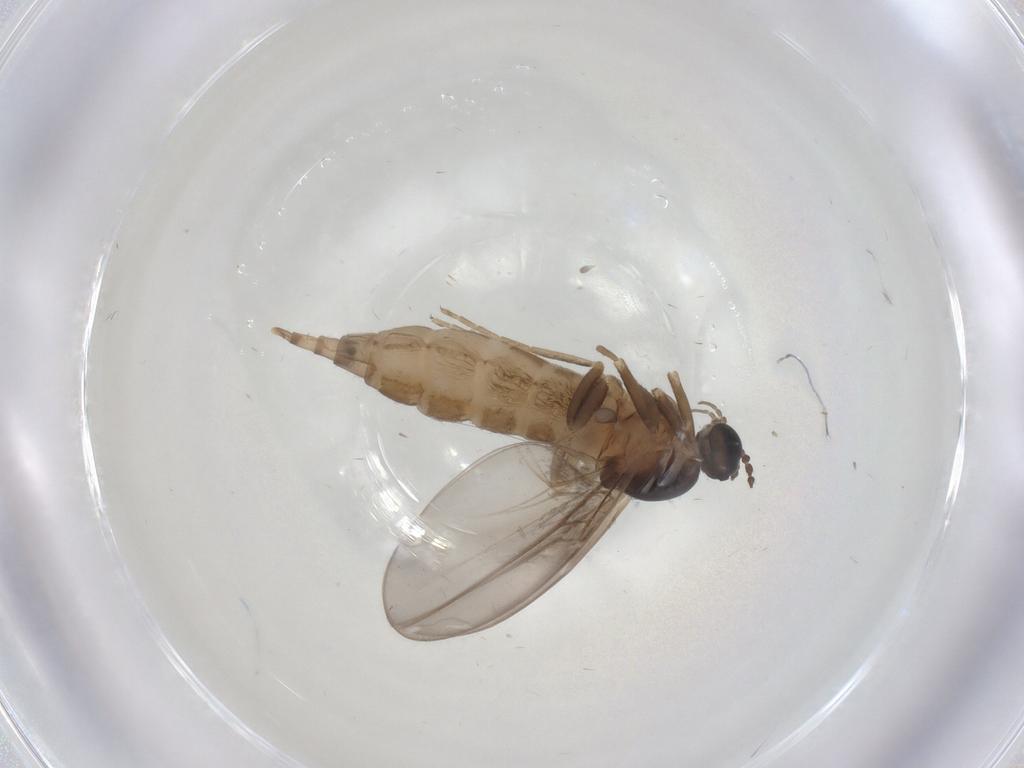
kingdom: Animalia
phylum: Arthropoda
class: Insecta
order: Diptera
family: Cecidomyiidae
